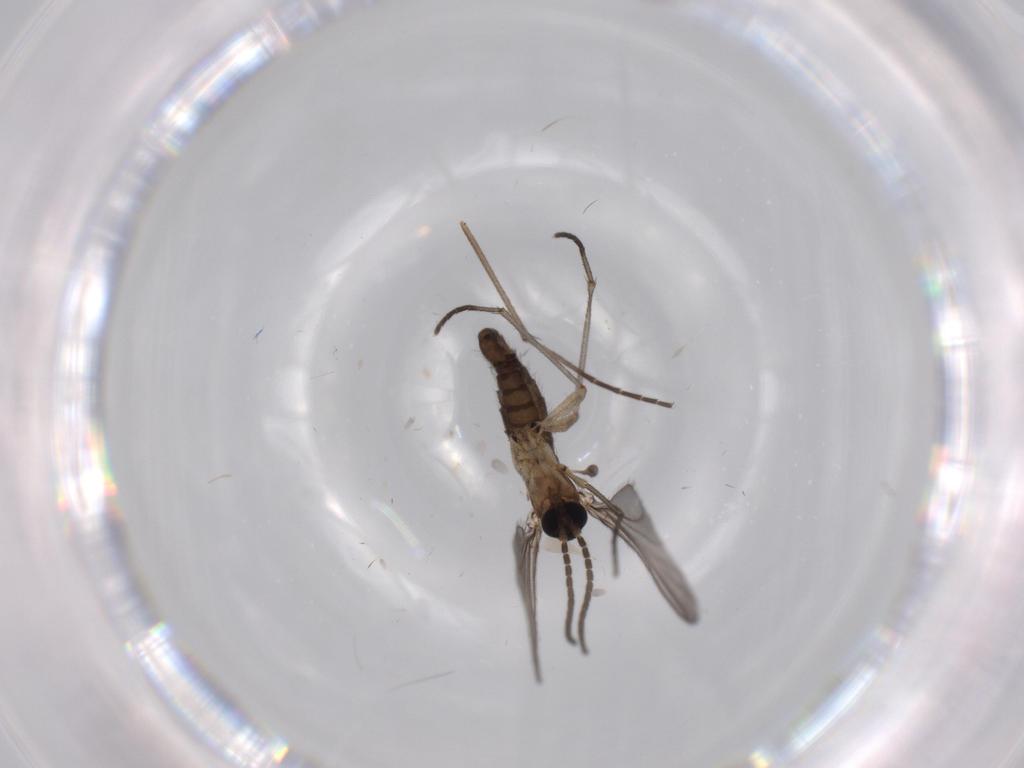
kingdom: Animalia
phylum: Arthropoda
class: Insecta
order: Diptera
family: Sciaridae
